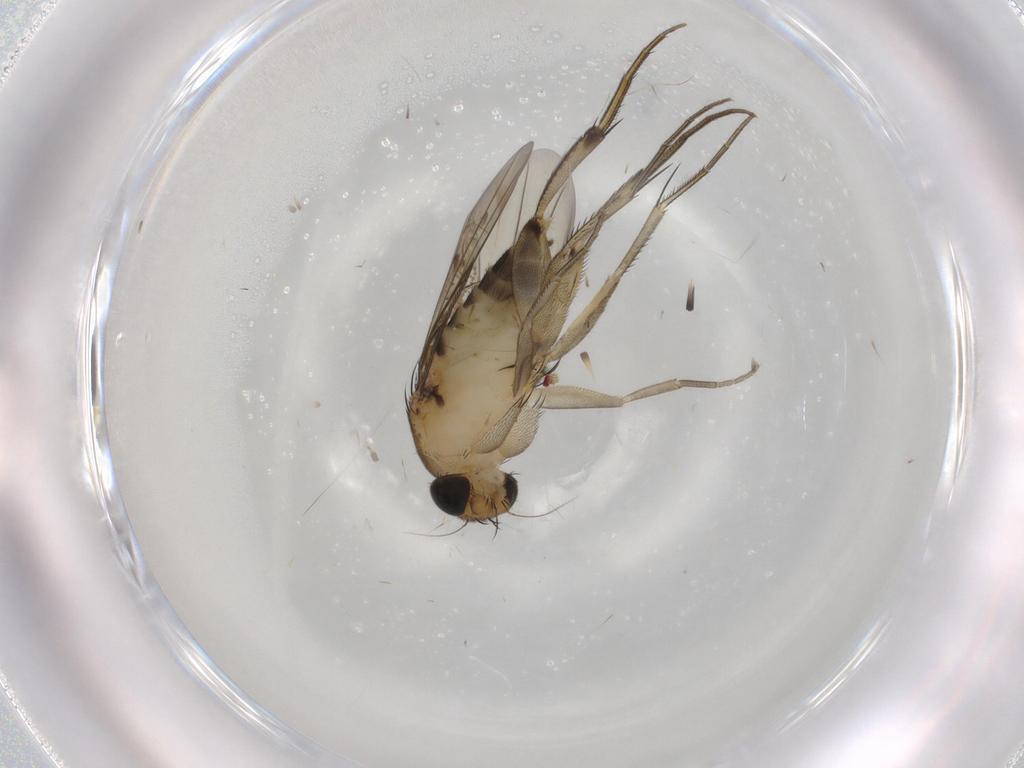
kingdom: Animalia
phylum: Arthropoda
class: Insecta
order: Diptera
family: Phoridae
